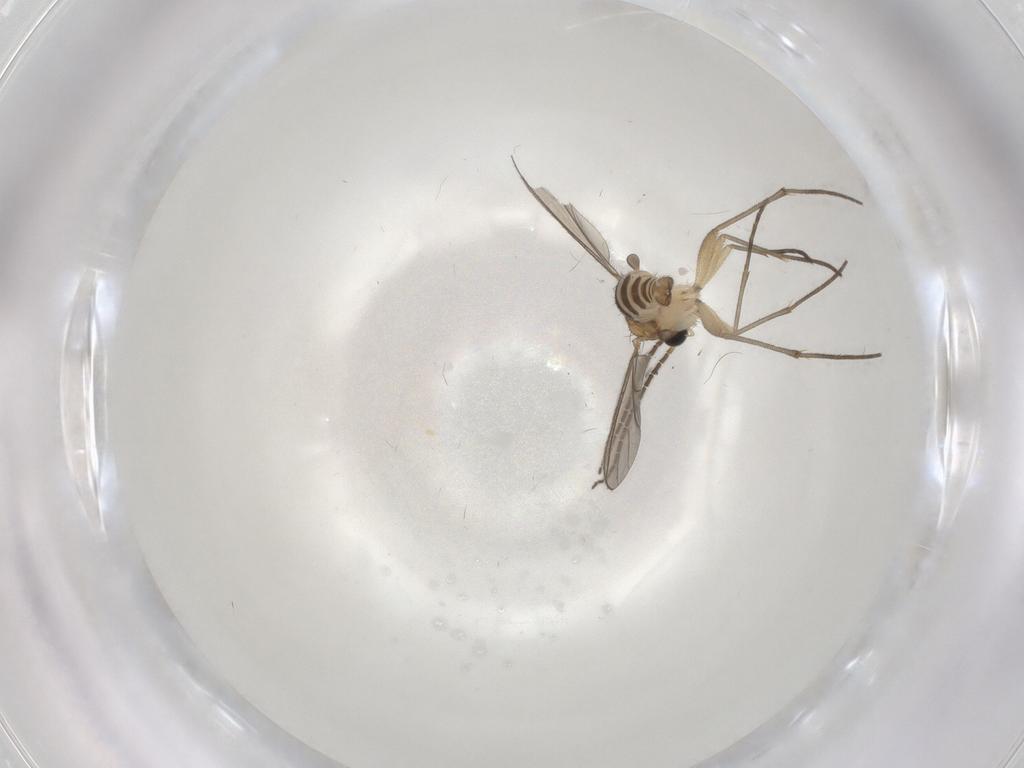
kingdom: Animalia
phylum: Arthropoda
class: Insecta
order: Diptera
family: Sciaridae
